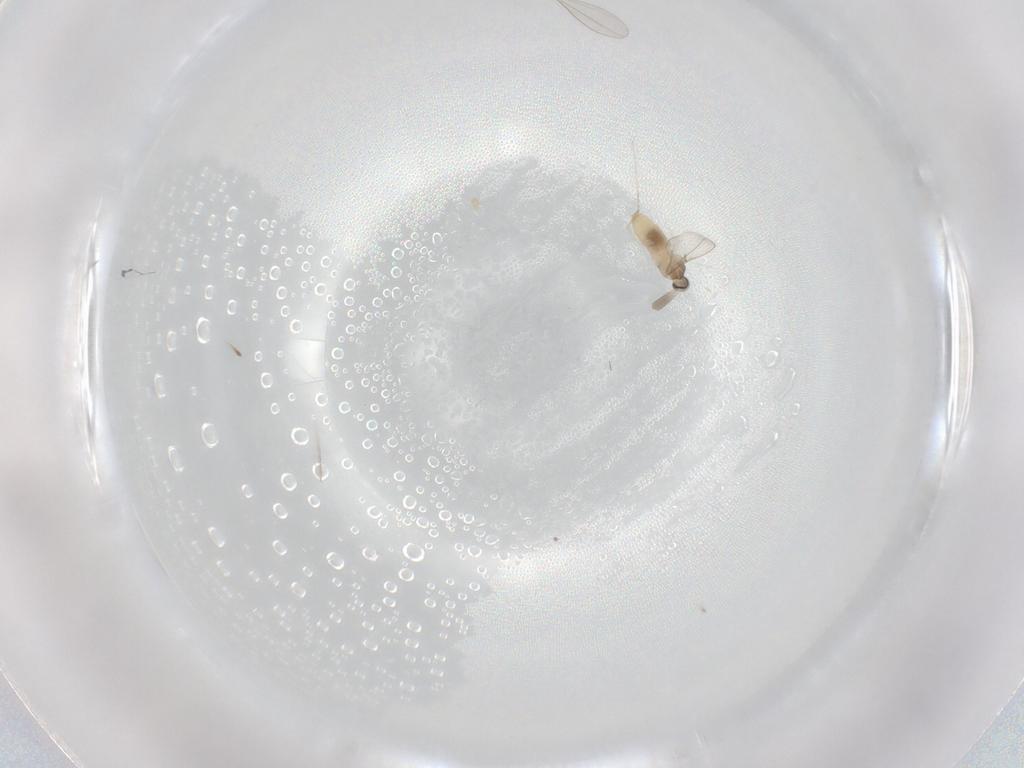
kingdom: Animalia
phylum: Arthropoda
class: Insecta
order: Diptera
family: Cecidomyiidae
